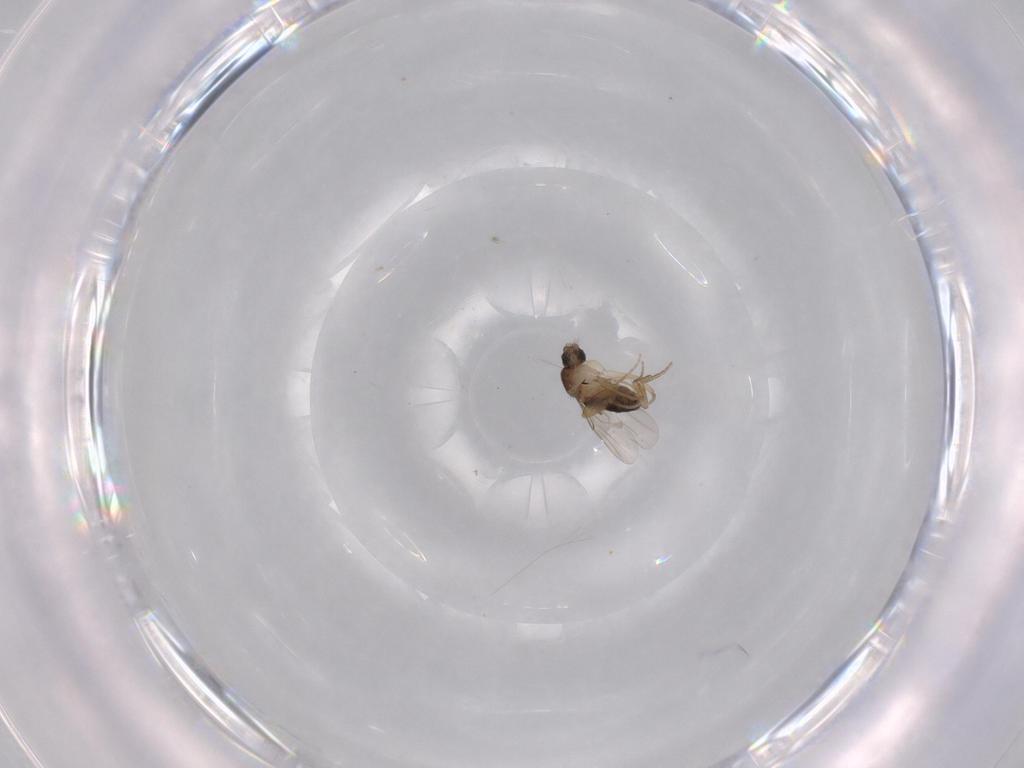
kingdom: Animalia
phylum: Arthropoda
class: Insecta
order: Diptera
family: Phoridae
